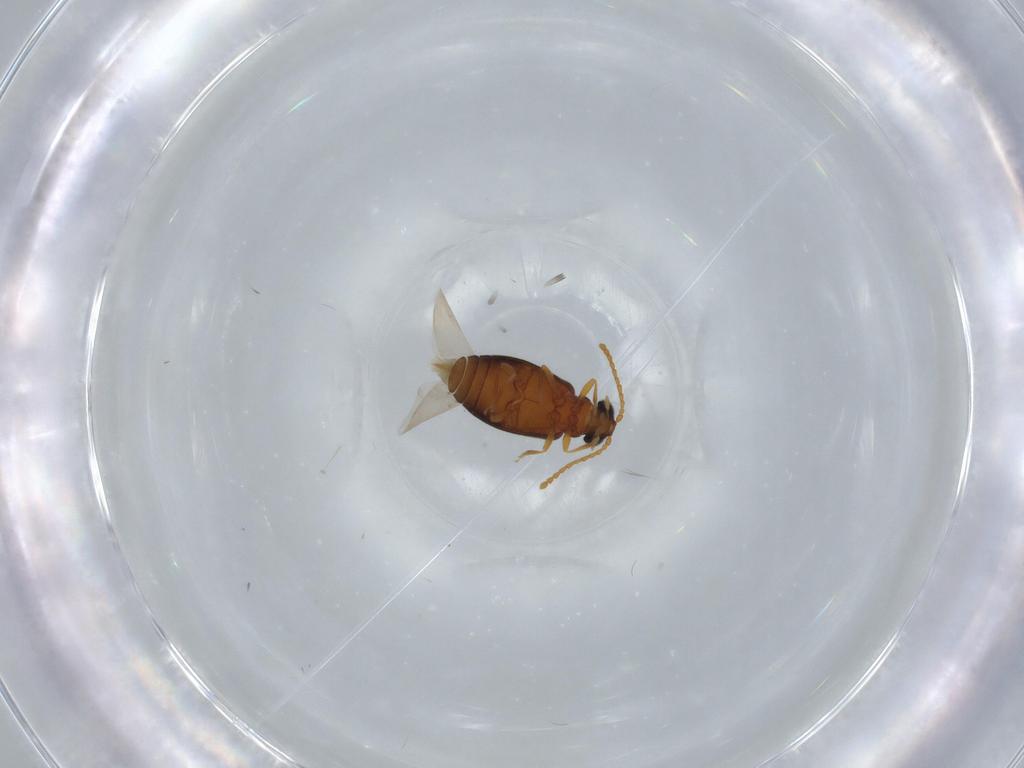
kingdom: Animalia
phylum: Arthropoda
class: Insecta
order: Coleoptera
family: Aderidae
